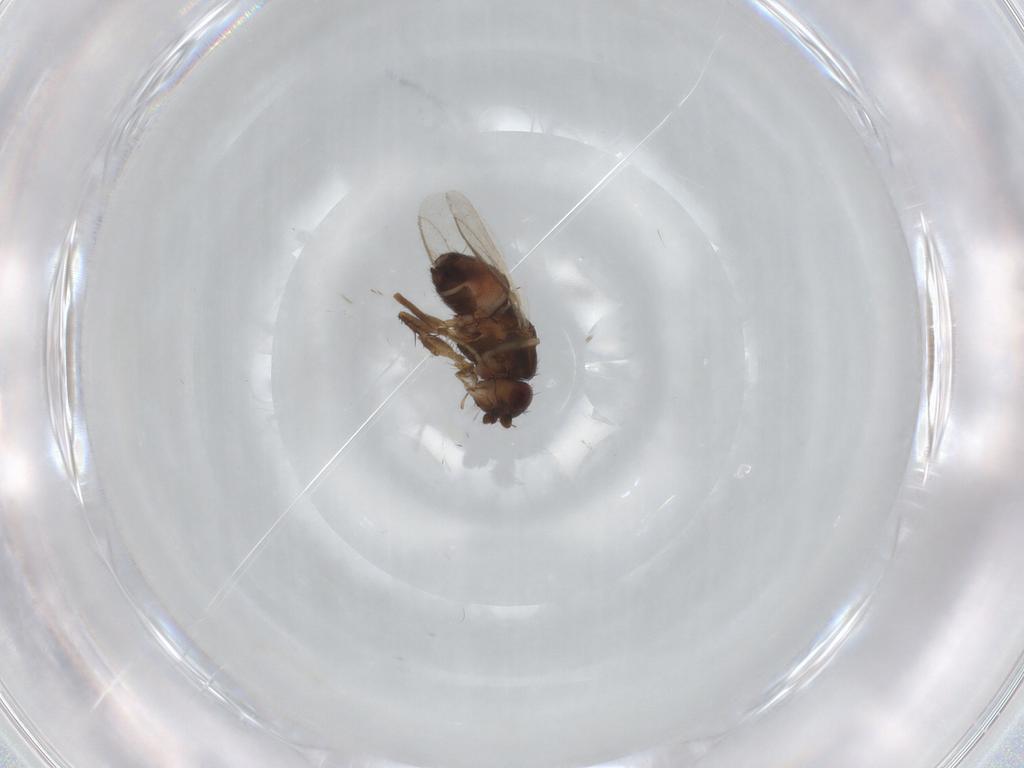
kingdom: Animalia
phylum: Arthropoda
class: Insecta
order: Diptera
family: Sphaeroceridae
